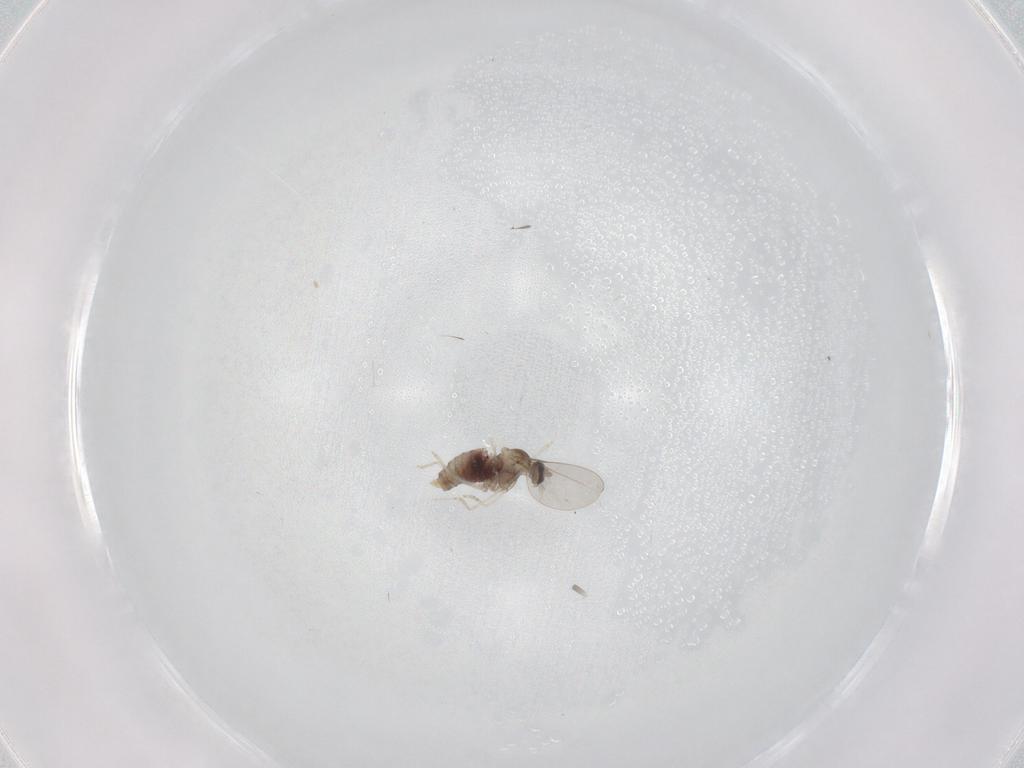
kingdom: Animalia
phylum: Arthropoda
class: Insecta
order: Diptera
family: Cecidomyiidae
